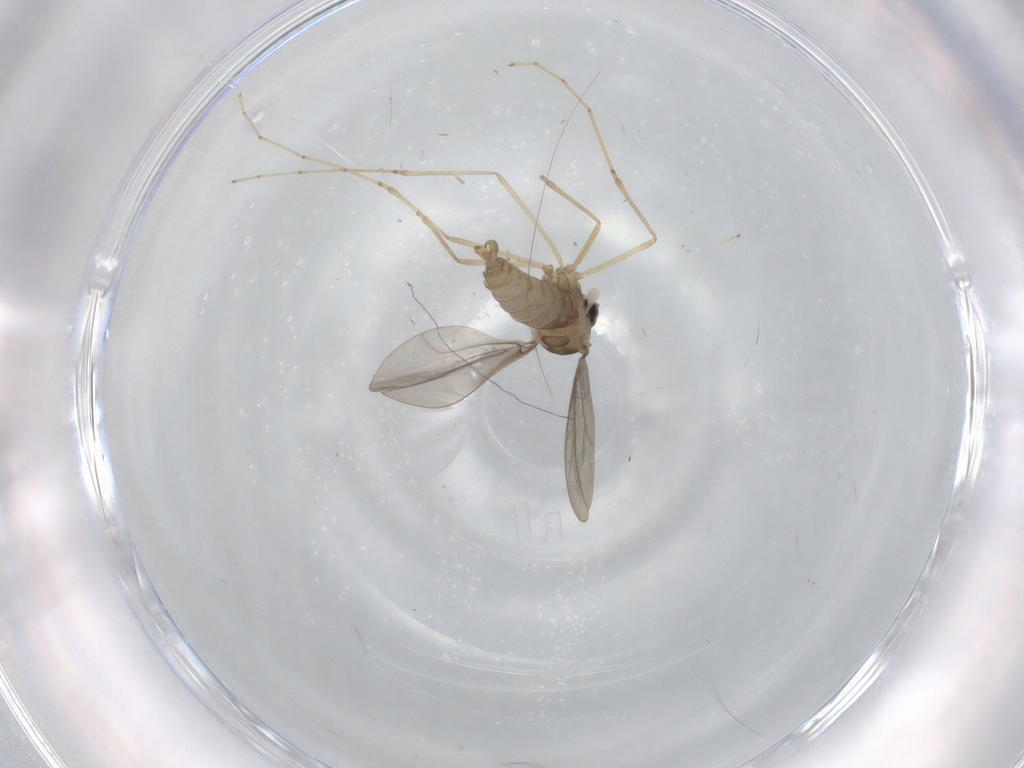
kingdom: Animalia
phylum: Arthropoda
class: Insecta
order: Diptera
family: Cecidomyiidae
